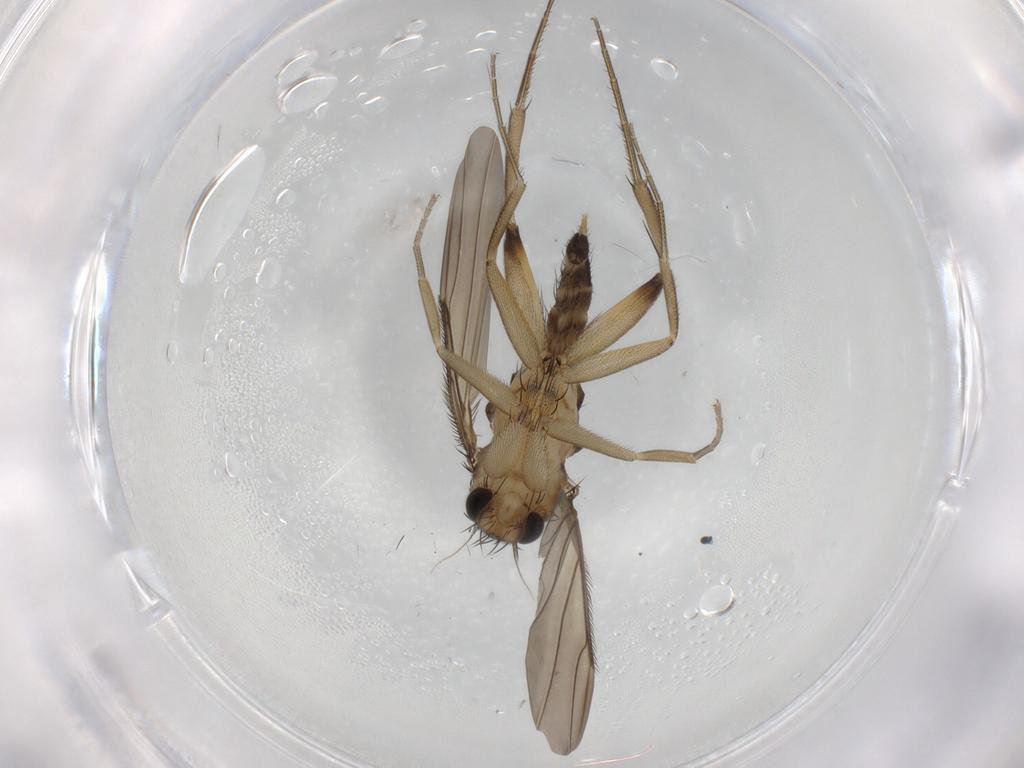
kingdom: Animalia
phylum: Arthropoda
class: Insecta
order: Diptera
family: Phoridae
